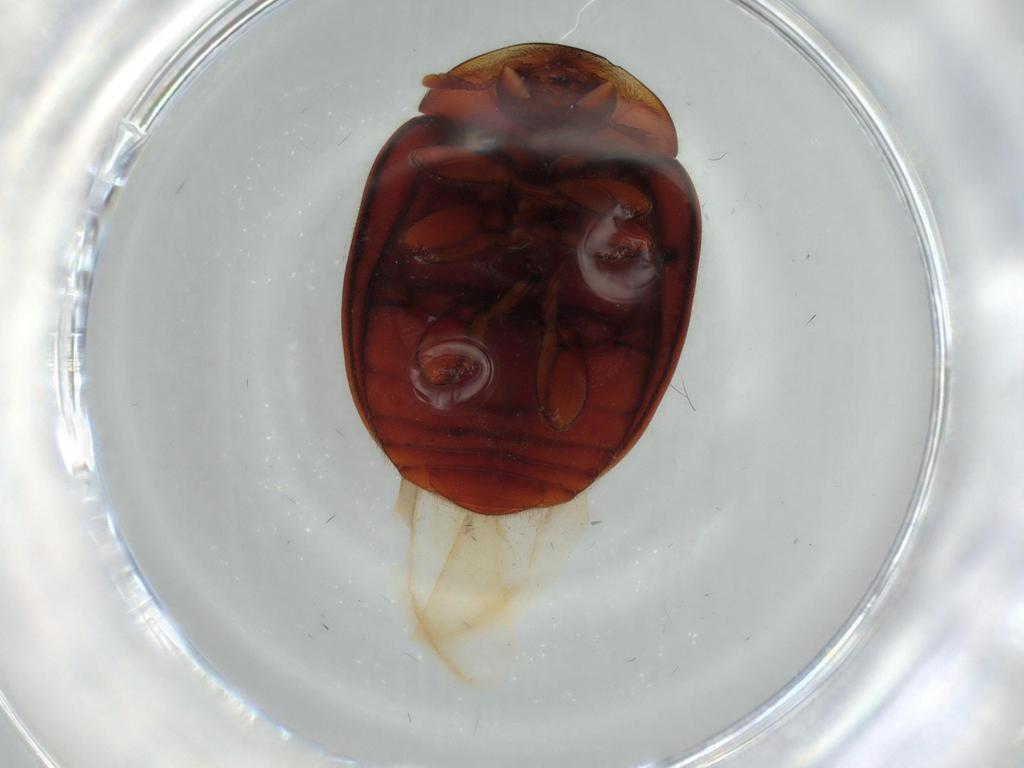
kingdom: Animalia
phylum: Arthropoda
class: Insecta
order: Coleoptera
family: Coccinellidae
